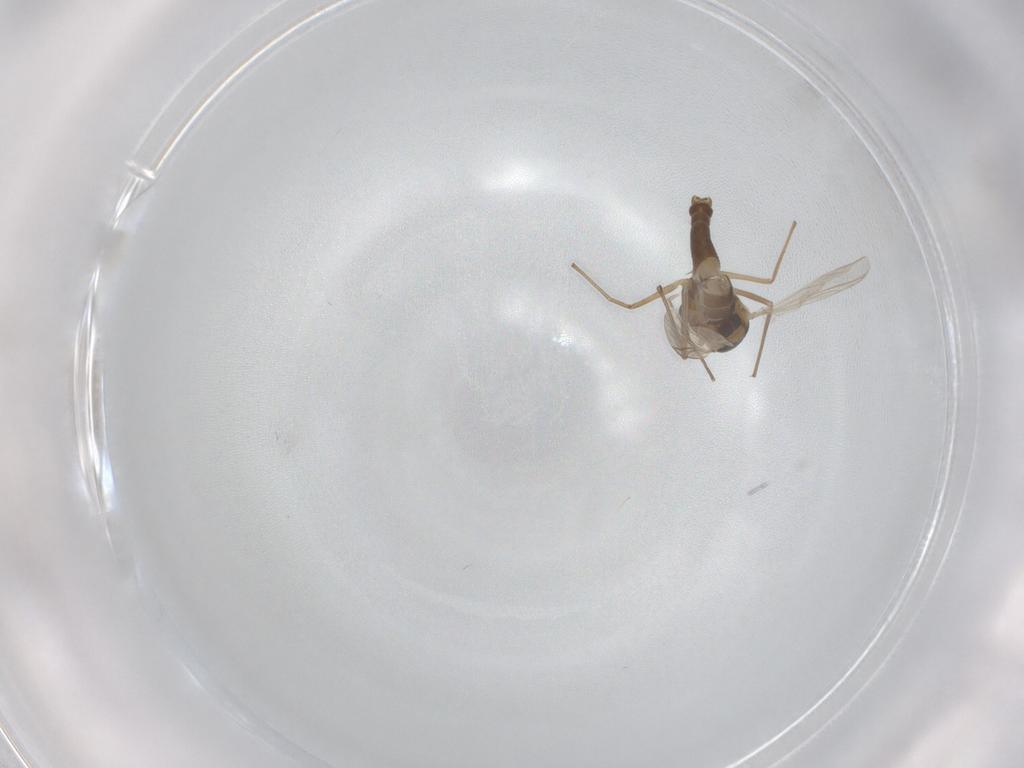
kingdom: Animalia
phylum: Arthropoda
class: Insecta
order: Diptera
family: Chironomidae
